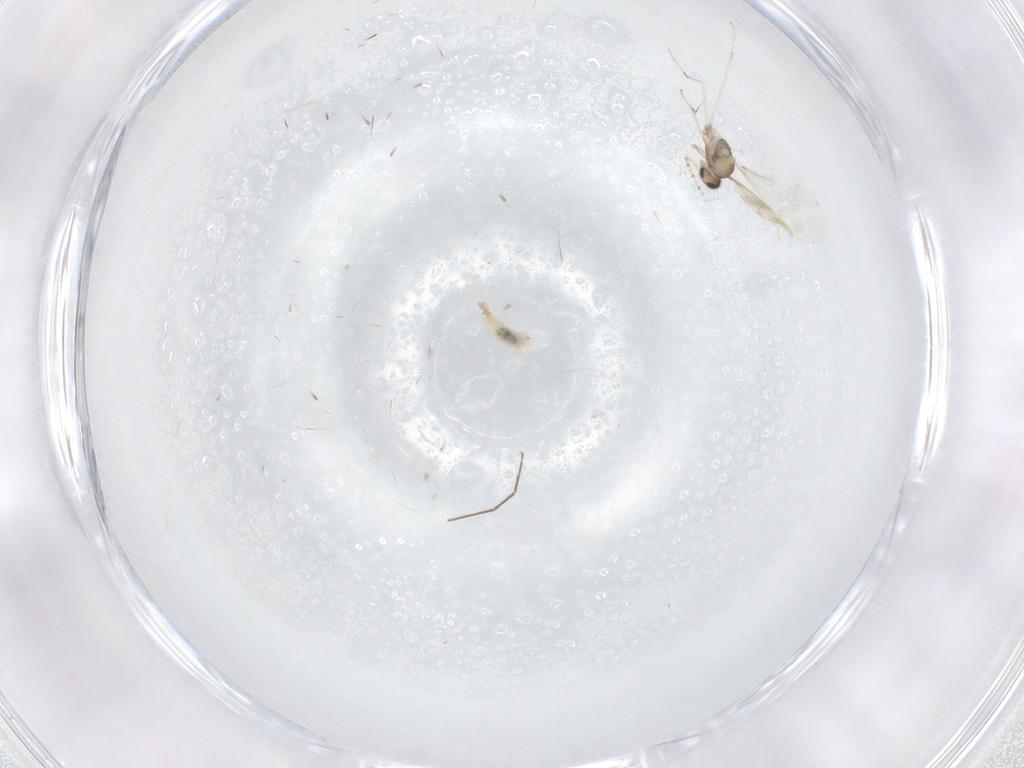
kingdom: Animalia
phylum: Arthropoda
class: Insecta
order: Diptera
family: Cecidomyiidae
